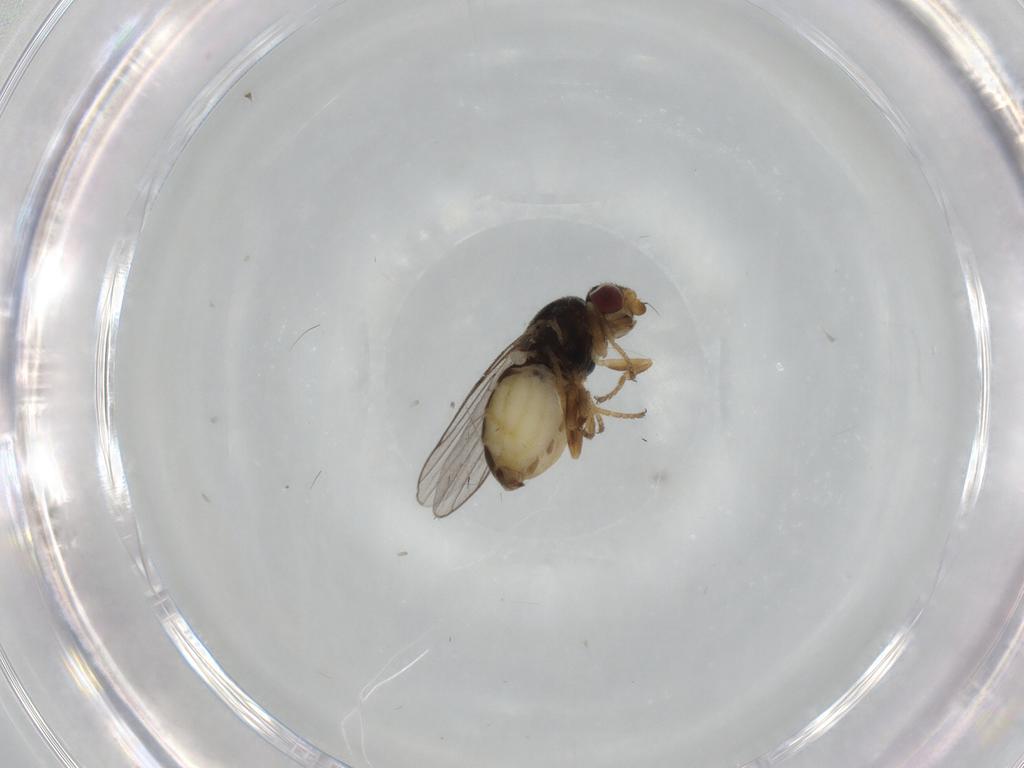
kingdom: Animalia
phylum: Arthropoda
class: Insecta
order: Diptera
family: Chloropidae
